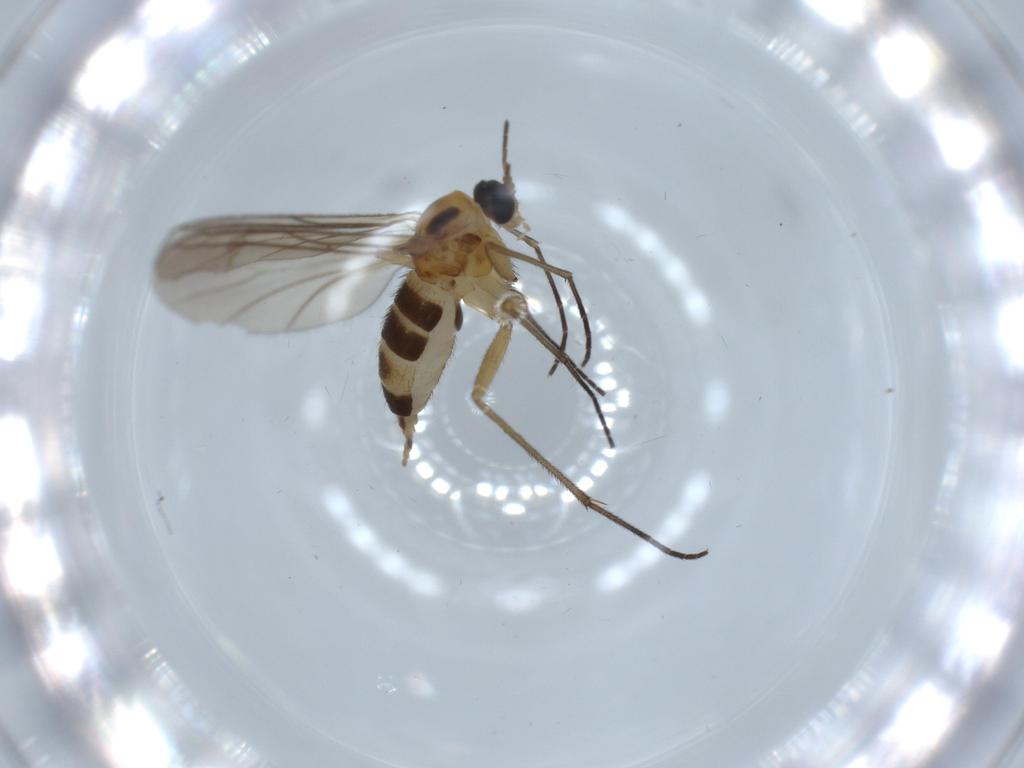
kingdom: Animalia
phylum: Arthropoda
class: Insecta
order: Diptera
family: Sciaridae
